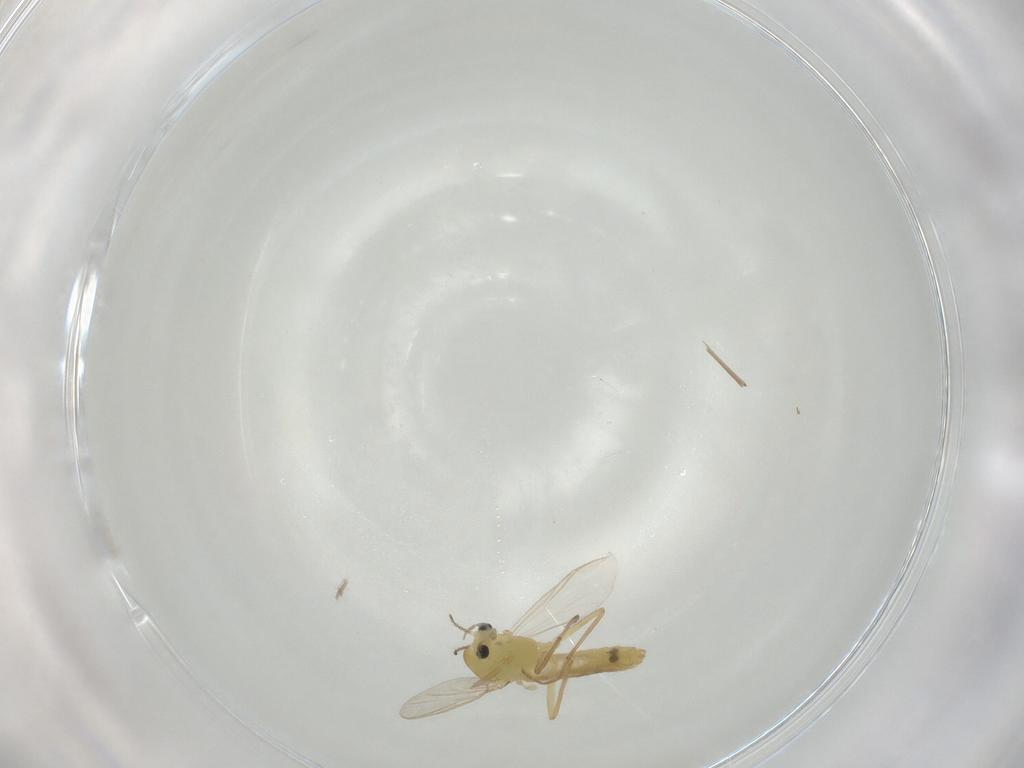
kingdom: Animalia
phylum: Arthropoda
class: Insecta
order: Diptera
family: Chironomidae
